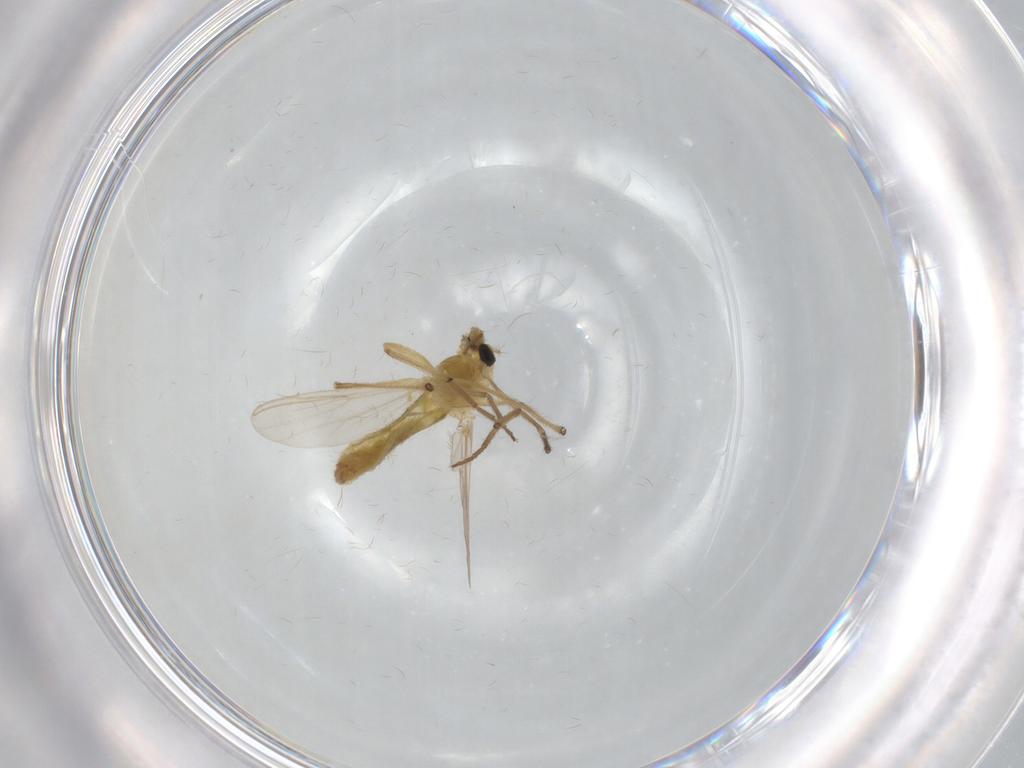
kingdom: Animalia
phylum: Arthropoda
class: Insecta
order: Diptera
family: Chironomidae
